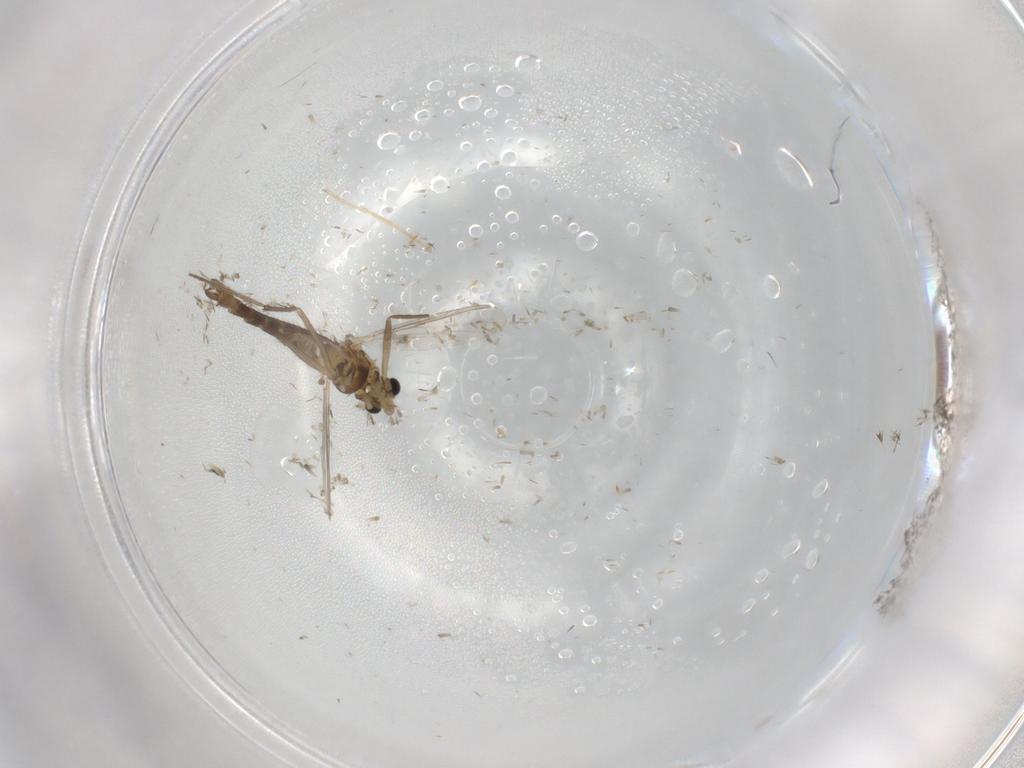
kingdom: Animalia
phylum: Arthropoda
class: Insecta
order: Diptera
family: Chironomidae
